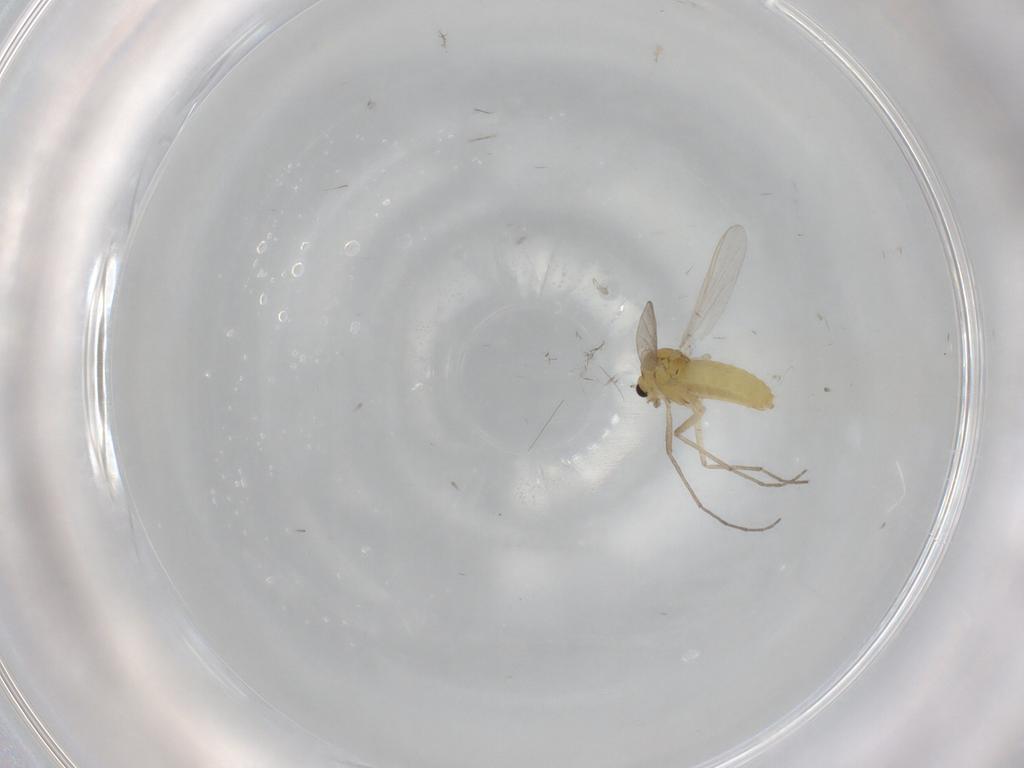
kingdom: Animalia
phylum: Arthropoda
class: Insecta
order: Diptera
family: Chironomidae
